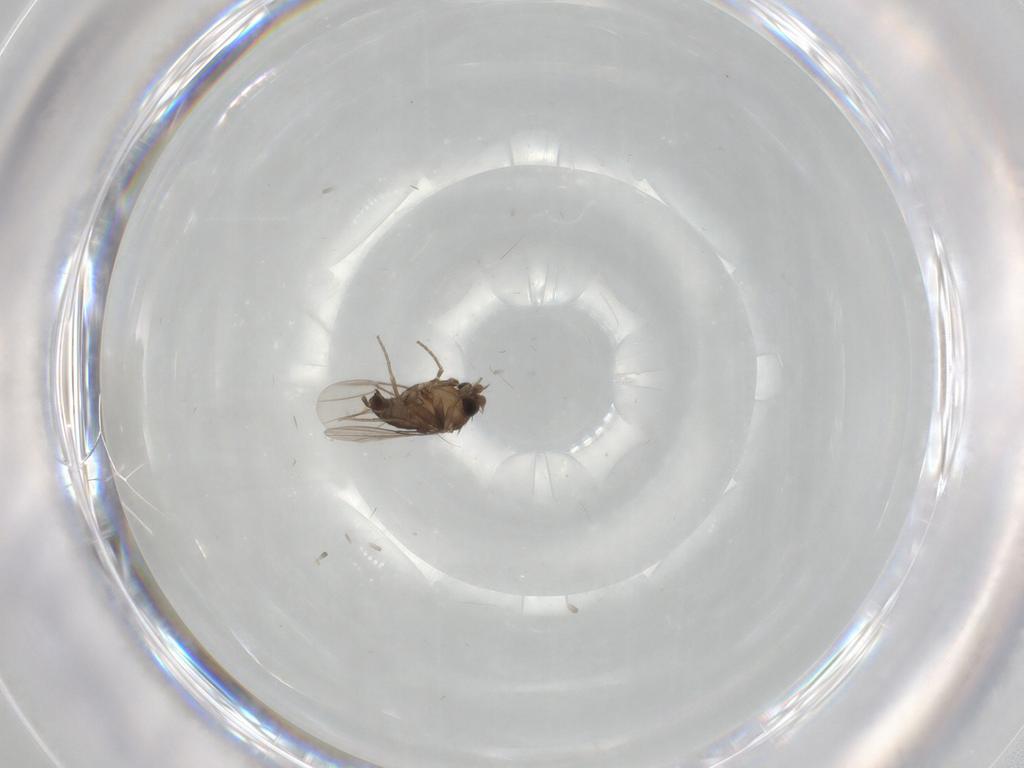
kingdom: Animalia
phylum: Arthropoda
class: Insecta
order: Diptera
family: Phoridae
